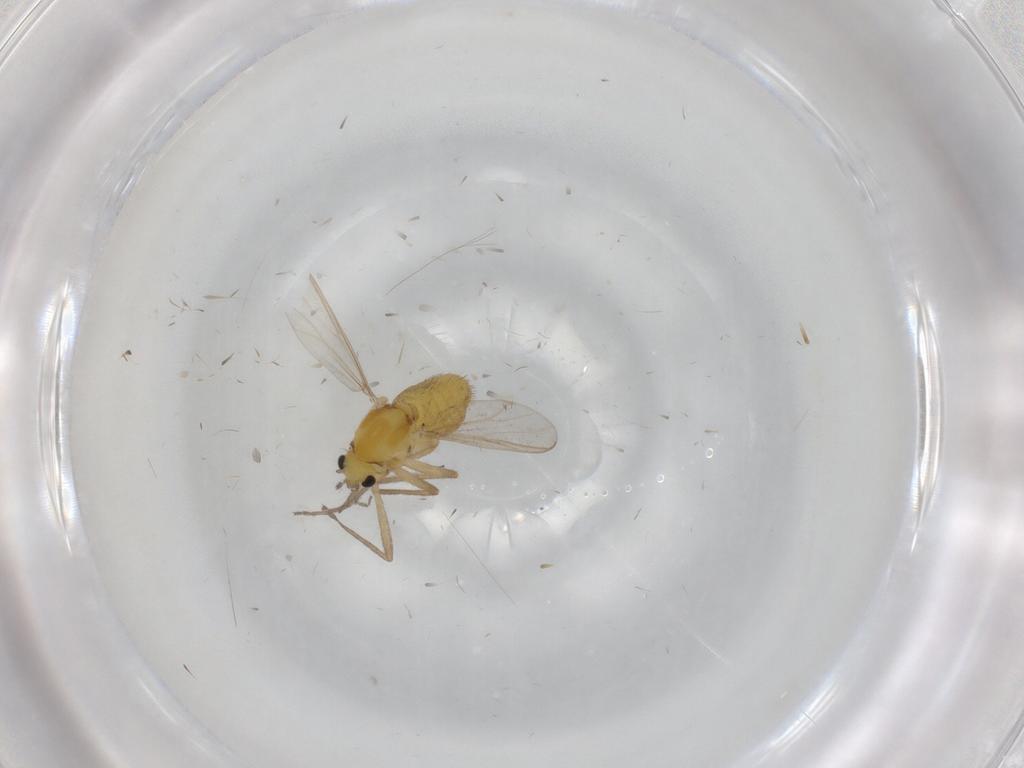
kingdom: Animalia
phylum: Arthropoda
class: Insecta
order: Diptera
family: Chironomidae
